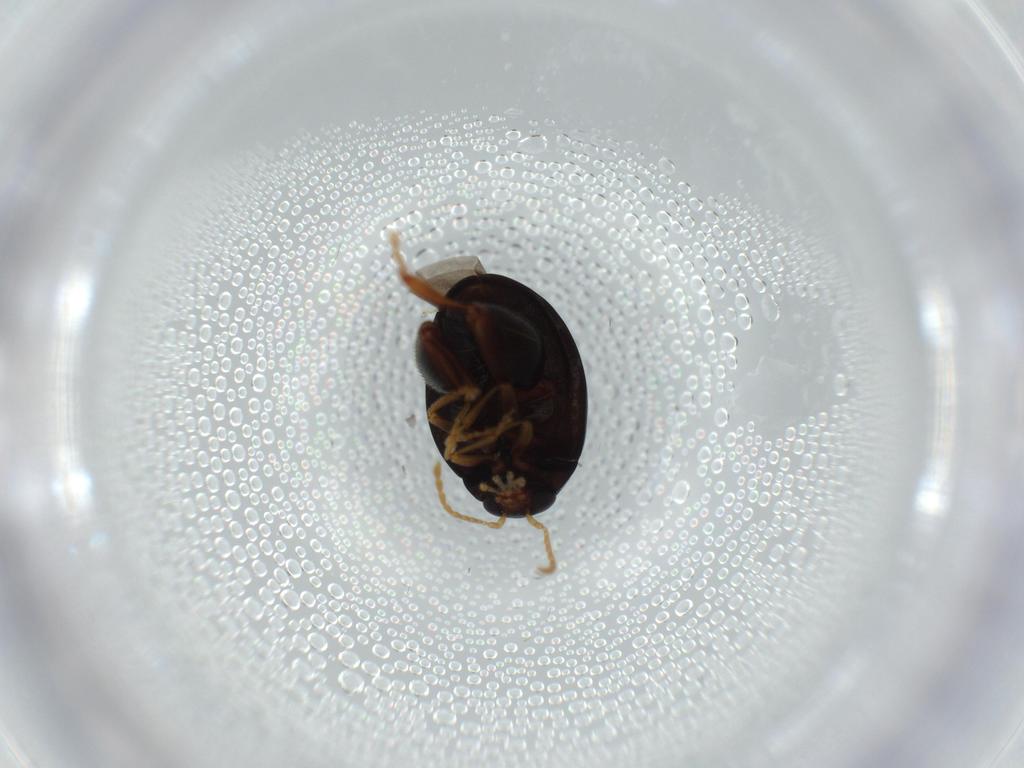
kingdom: Animalia
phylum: Arthropoda
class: Insecta
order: Coleoptera
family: Chrysomelidae
